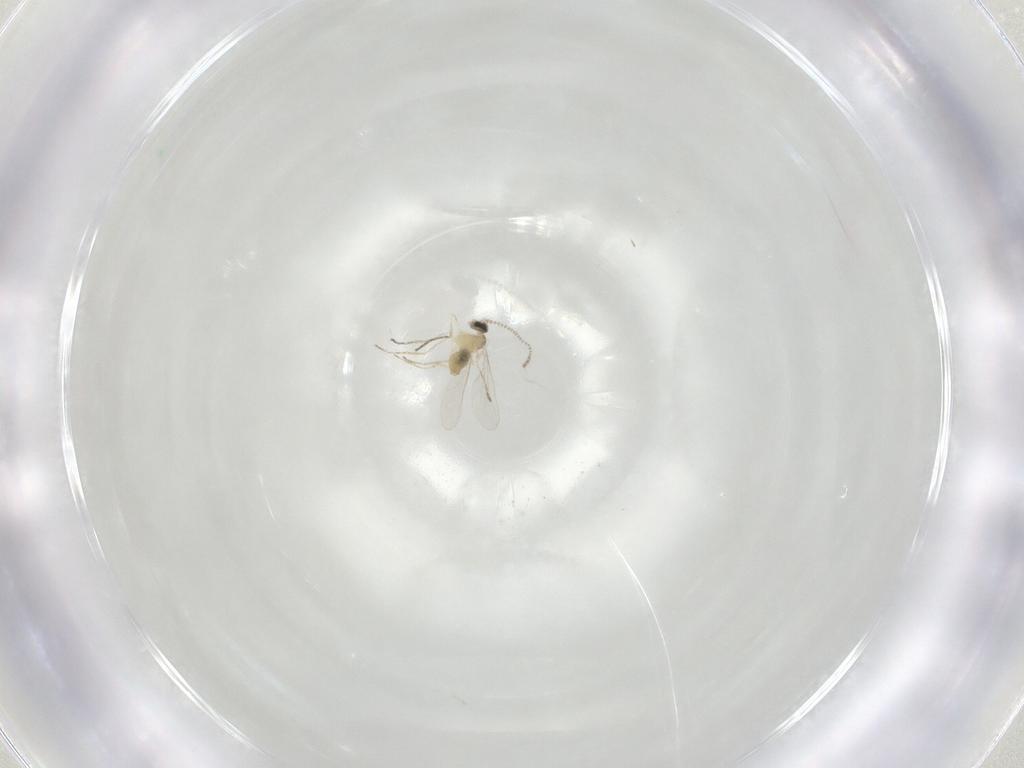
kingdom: Animalia
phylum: Arthropoda
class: Insecta
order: Diptera
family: Cecidomyiidae
